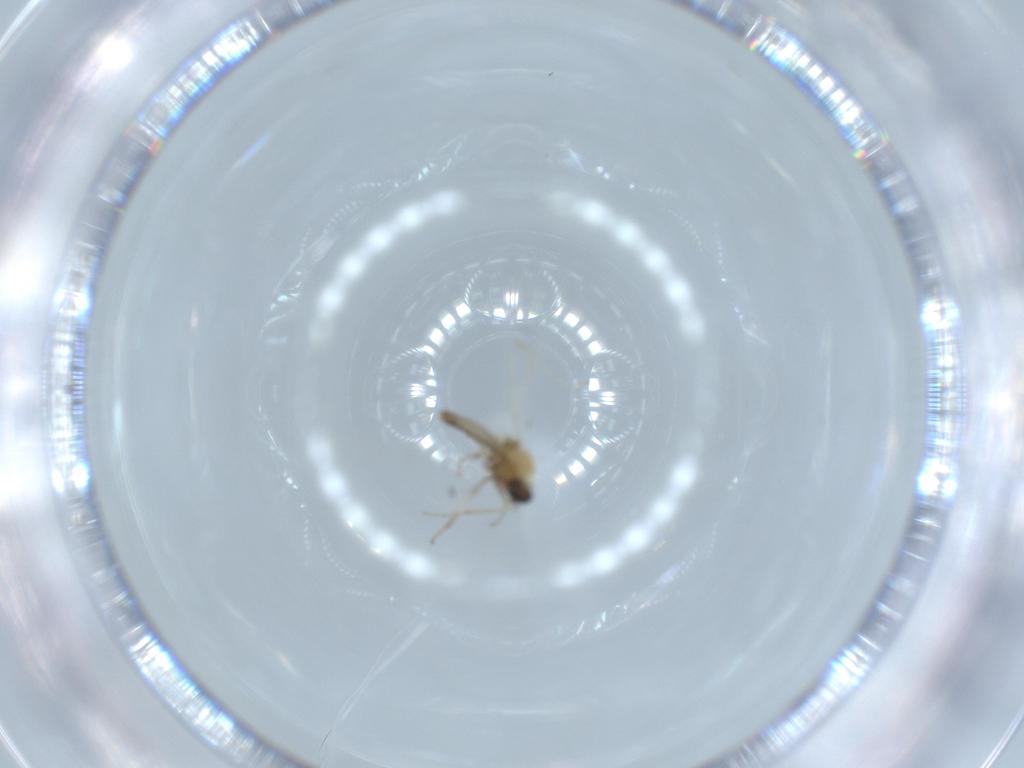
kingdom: Animalia
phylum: Arthropoda
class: Insecta
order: Diptera
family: Ceratopogonidae
